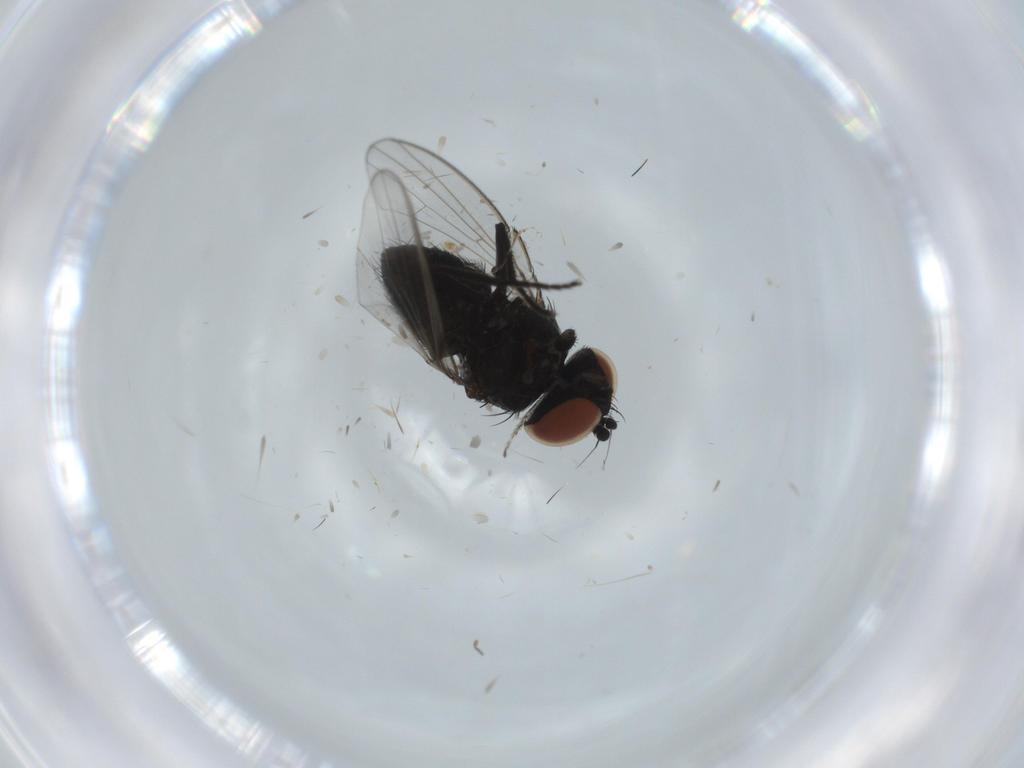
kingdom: Animalia
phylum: Arthropoda
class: Insecta
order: Diptera
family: Milichiidae
